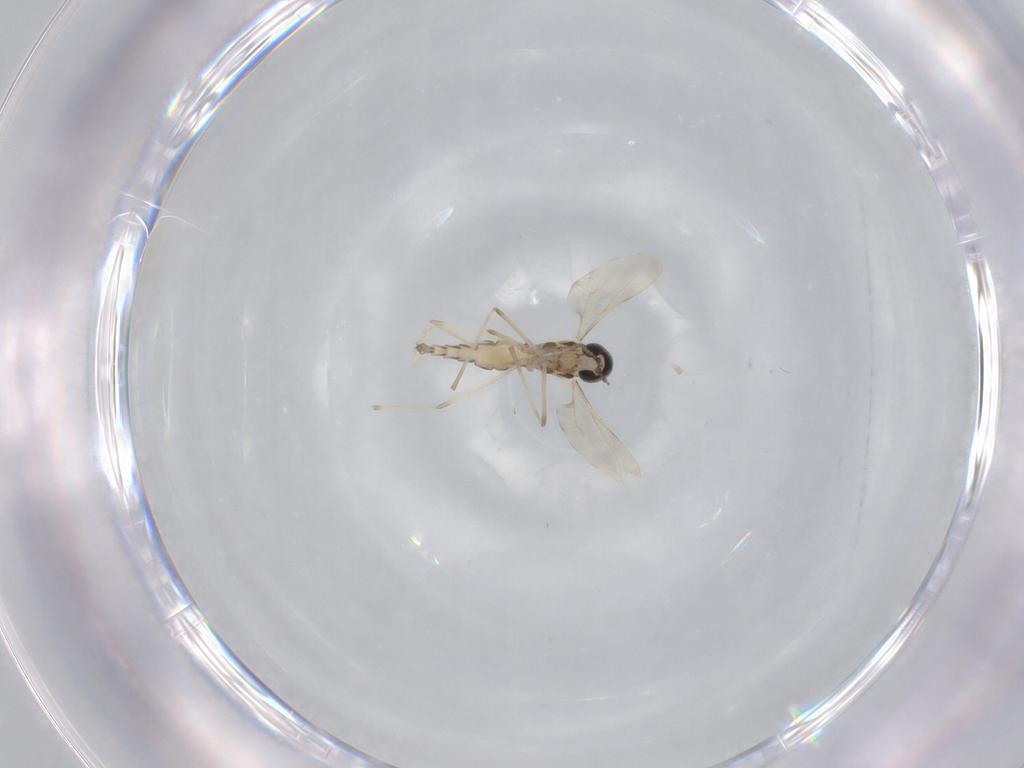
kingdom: Animalia
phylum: Arthropoda
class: Insecta
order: Diptera
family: Cecidomyiidae
